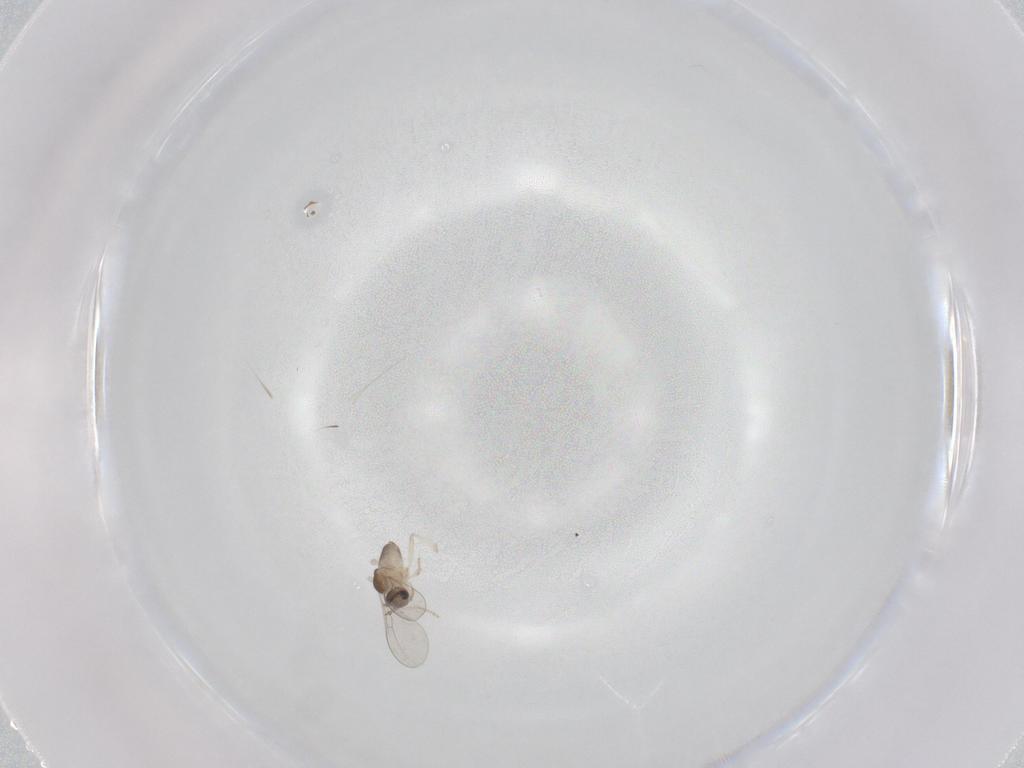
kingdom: Animalia
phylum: Arthropoda
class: Insecta
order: Diptera
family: Cecidomyiidae
